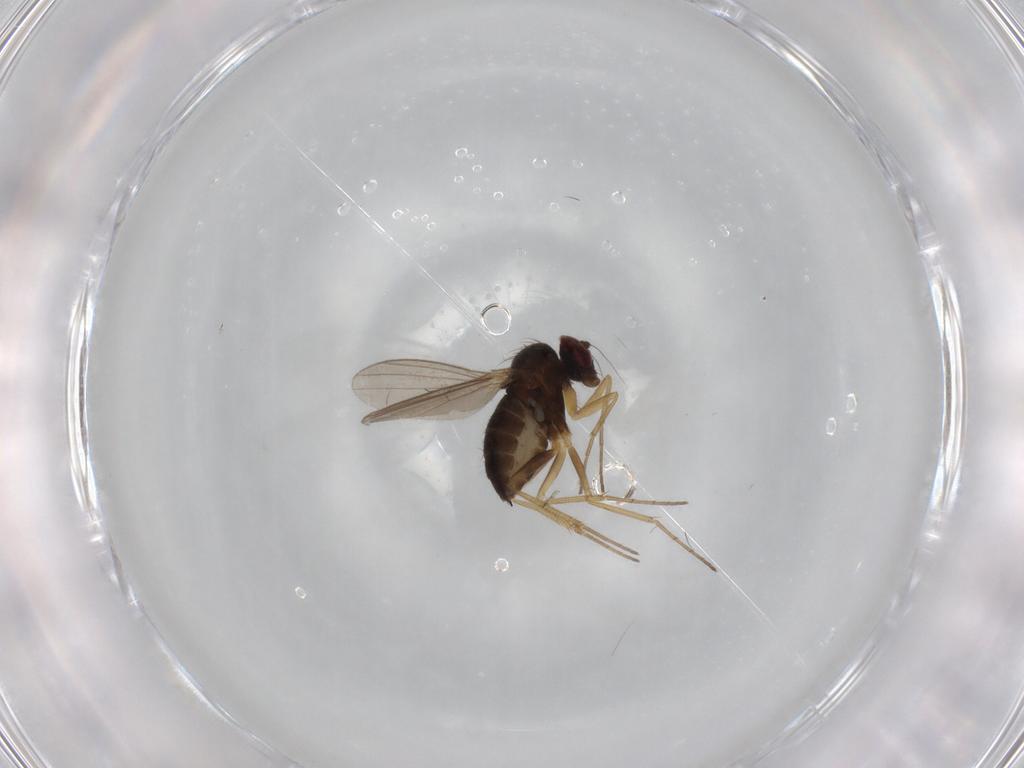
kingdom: Animalia
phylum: Arthropoda
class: Insecta
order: Diptera
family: Dolichopodidae
